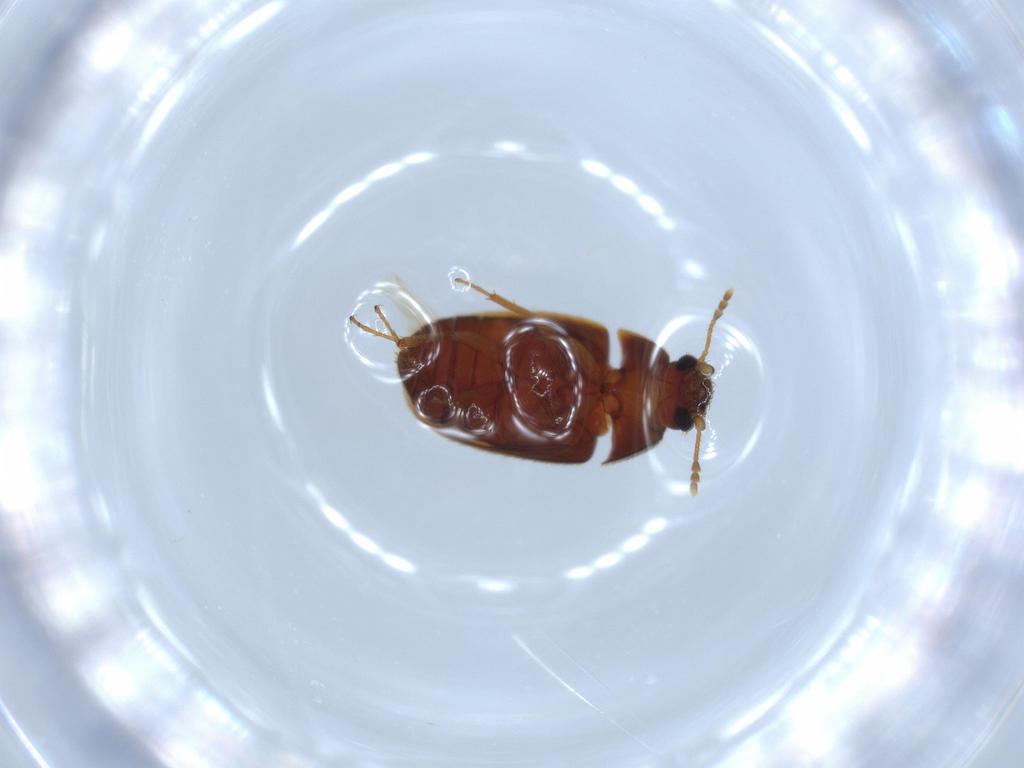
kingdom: Animalia
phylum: Arthropoda
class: Insecta
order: Coleoptera
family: Mycetophagidae
